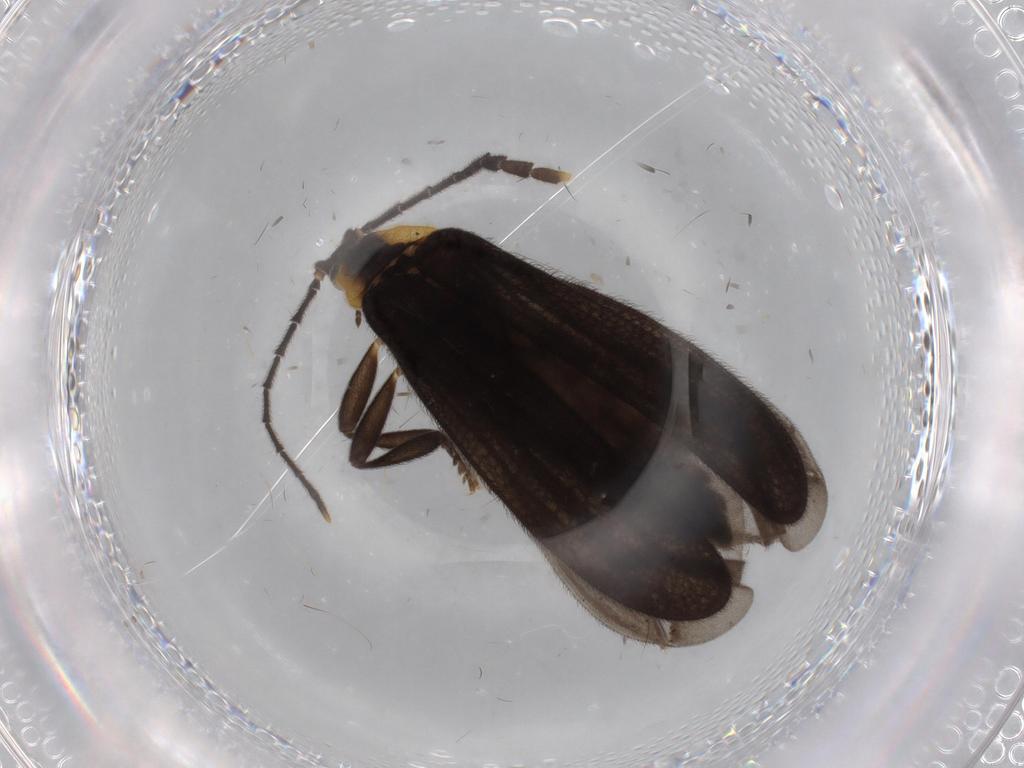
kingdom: Animalia
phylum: Arthropoda
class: Insecta
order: Coleoptera
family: Lycidae
